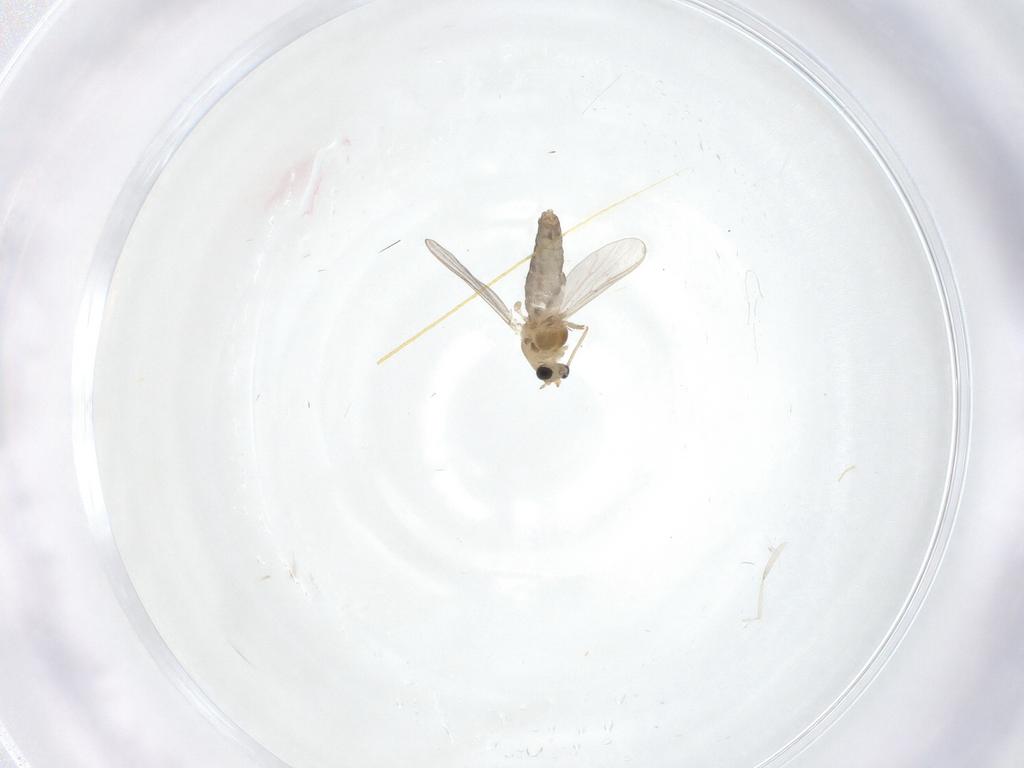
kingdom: Animalia
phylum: Arthropoda
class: Insecta
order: Diptera
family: Chironomidae
